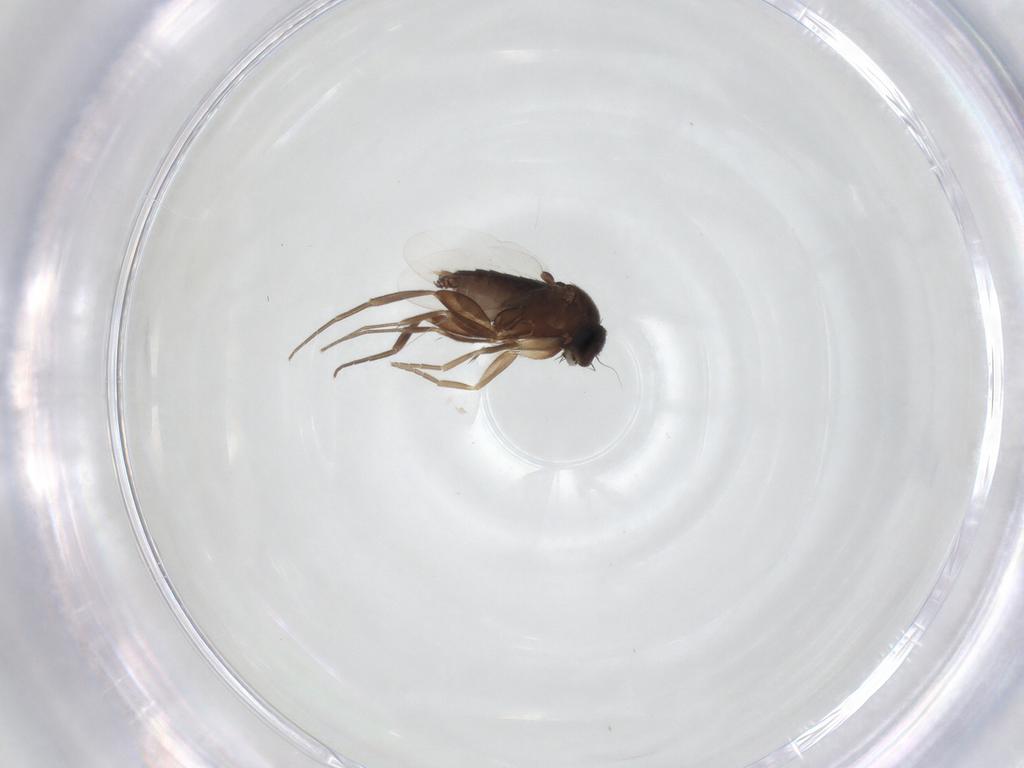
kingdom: Animalia
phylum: Arthropoda
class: Insecta
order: Diptera
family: Phoridae
